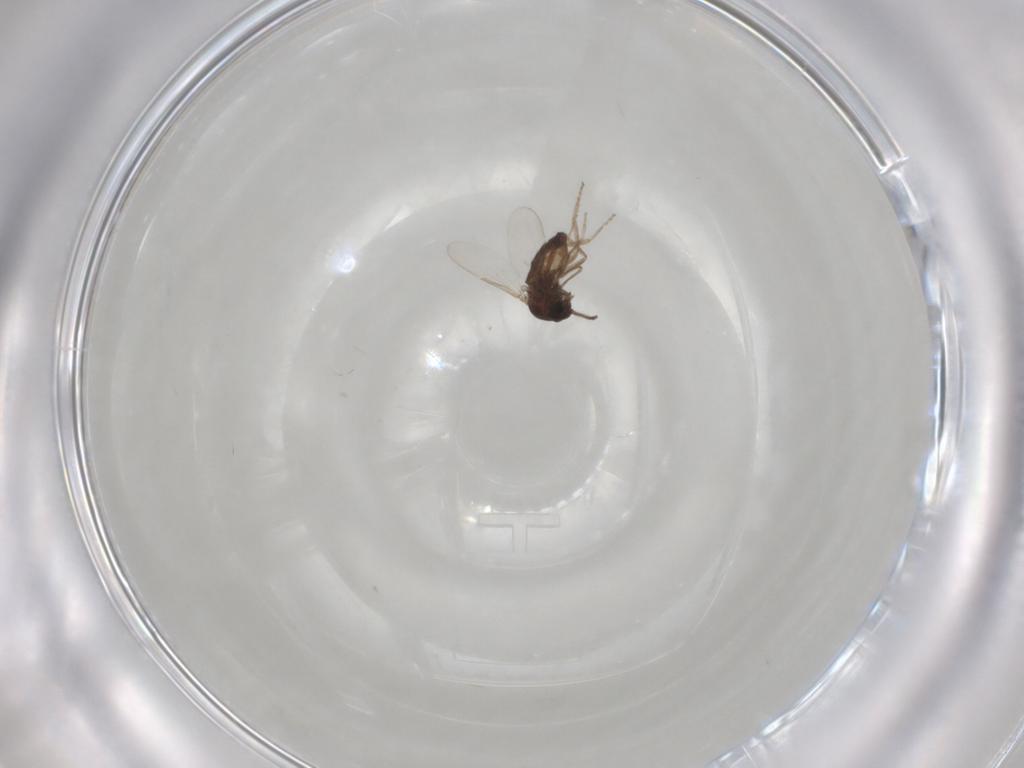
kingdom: Animalia
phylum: Arthropoda
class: Insecta
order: Diptera
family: Ceratopogonidae
